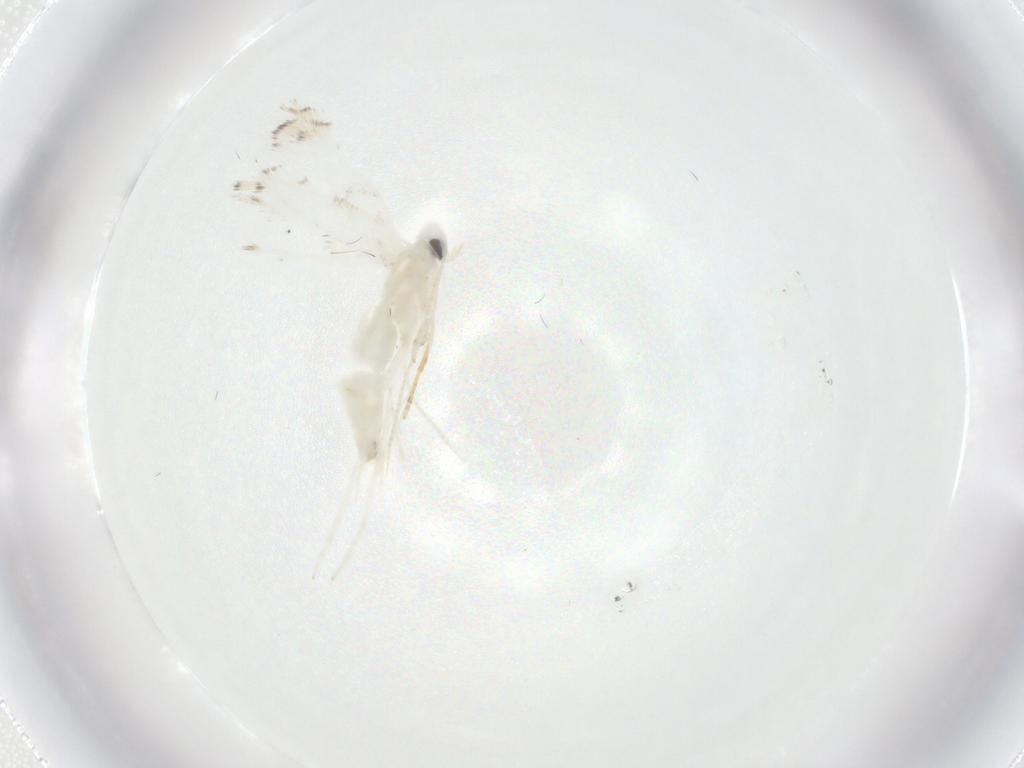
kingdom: Animalia
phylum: Arthropoda
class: Insecta
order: Lepidoptera
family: Gracillariidae
